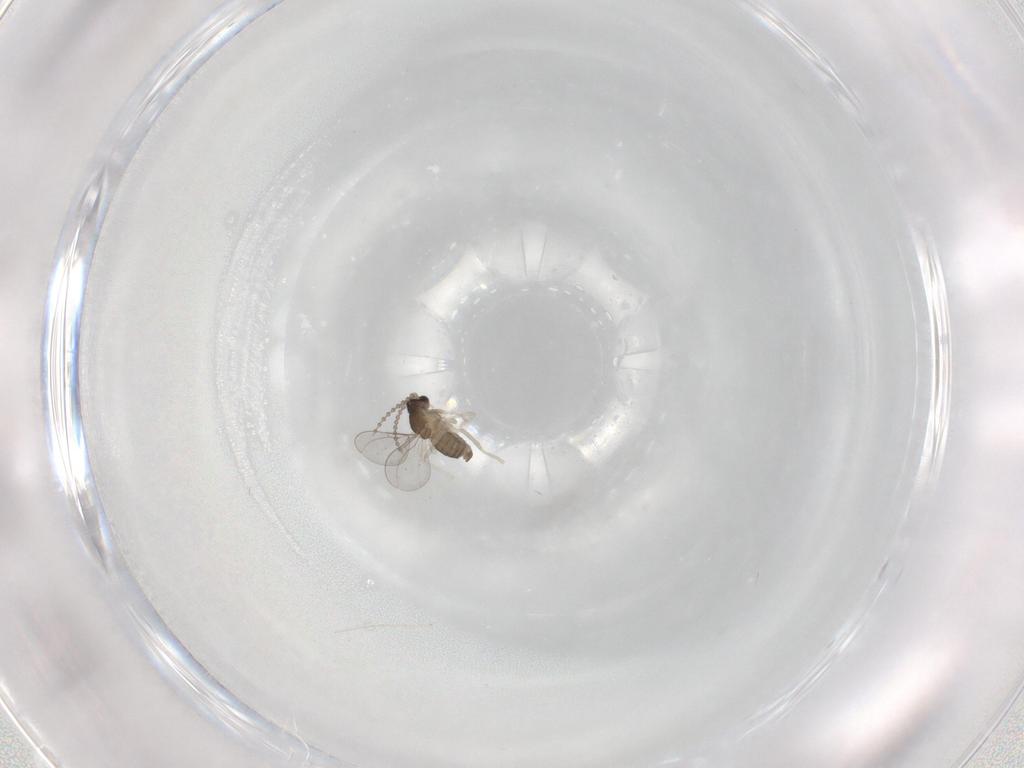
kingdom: Animalia
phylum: Arthropoda
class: Insecta
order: Diptera
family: Cecidomyiidae
